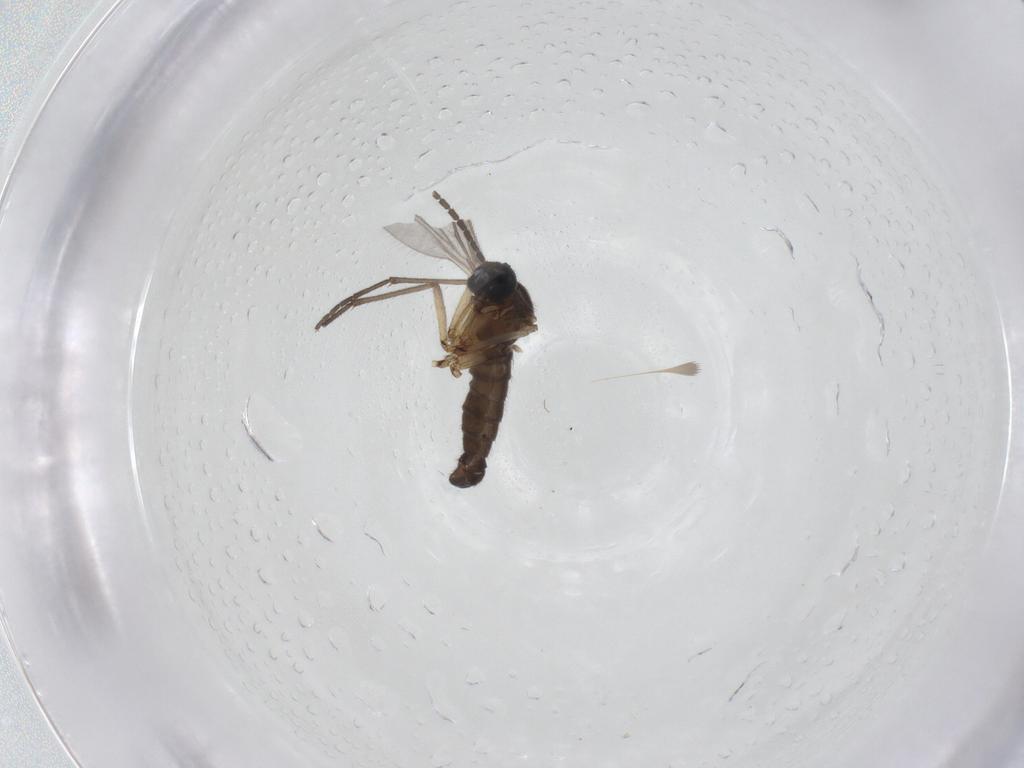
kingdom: Animalia
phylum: Arthropoda
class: Insecta
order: Diptera
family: Sciaridae
